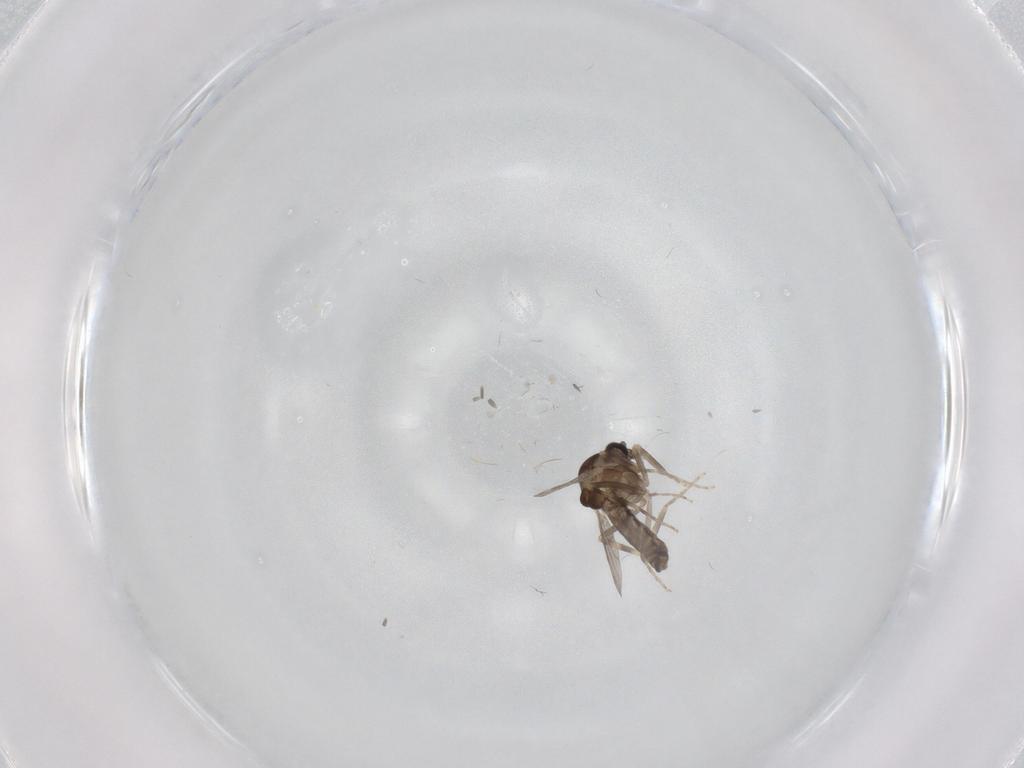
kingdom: Animalia
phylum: Arthropoda
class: Insecta
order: Diptera
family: Ceratopogonidae
